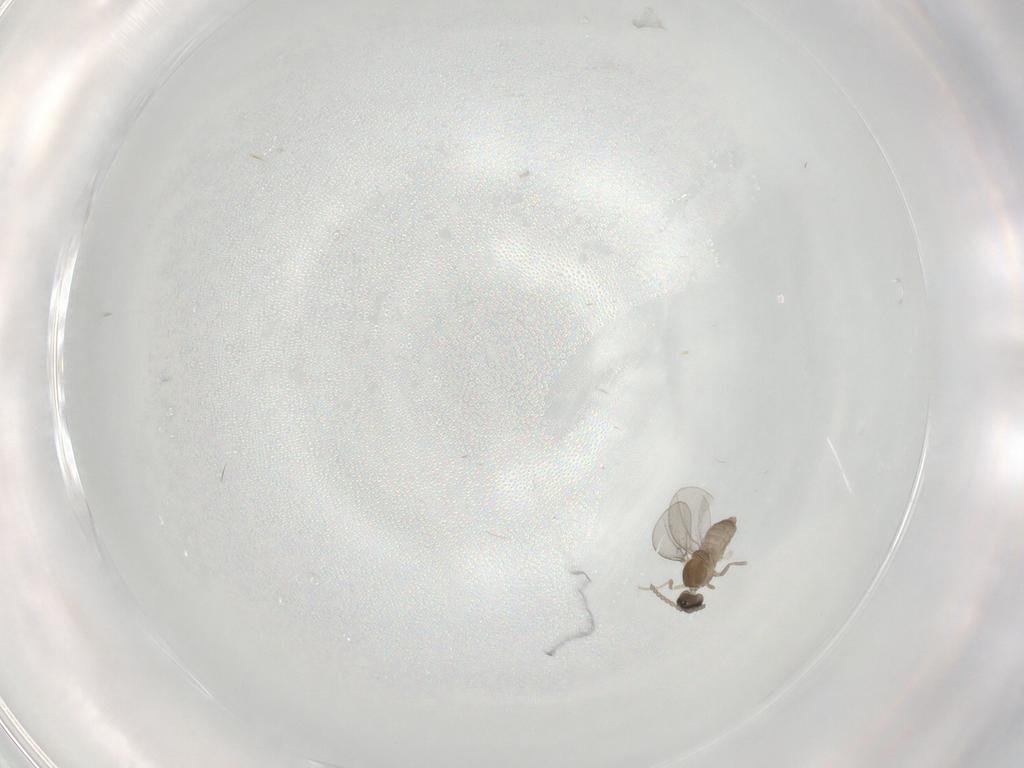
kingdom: Animalia
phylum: Arthropoda
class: Insecta
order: Diptera
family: Cecidomyiidae
